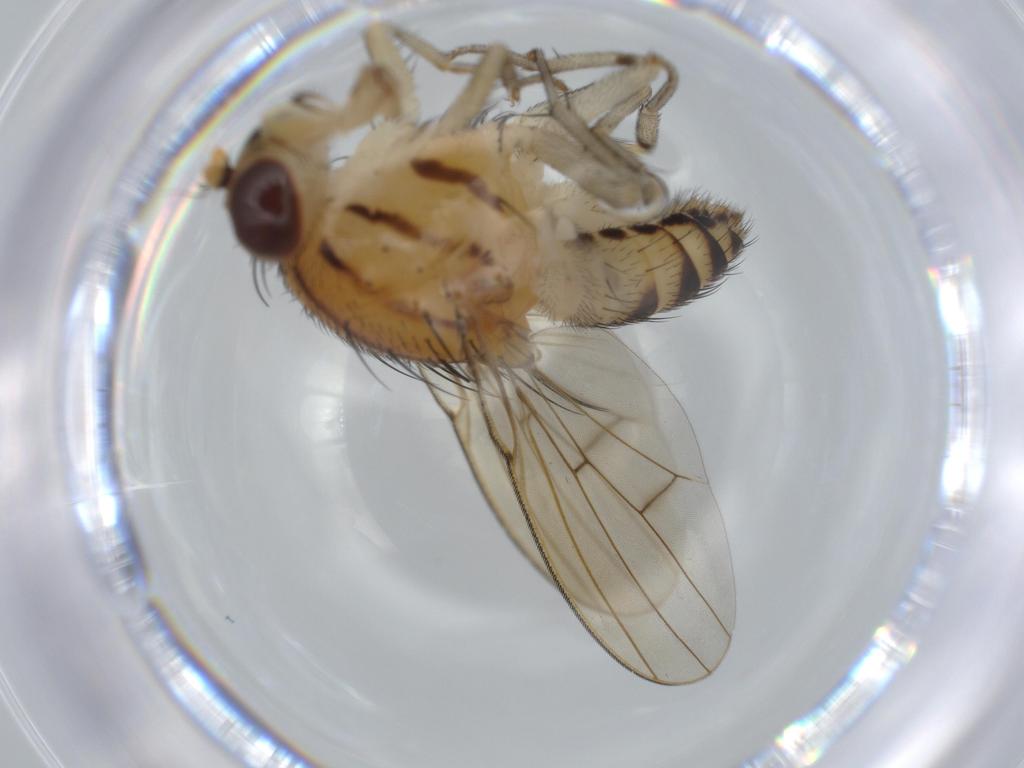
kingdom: Animalia
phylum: Arthropoda
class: Insecta
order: Diptera
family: Lauxaniidae
